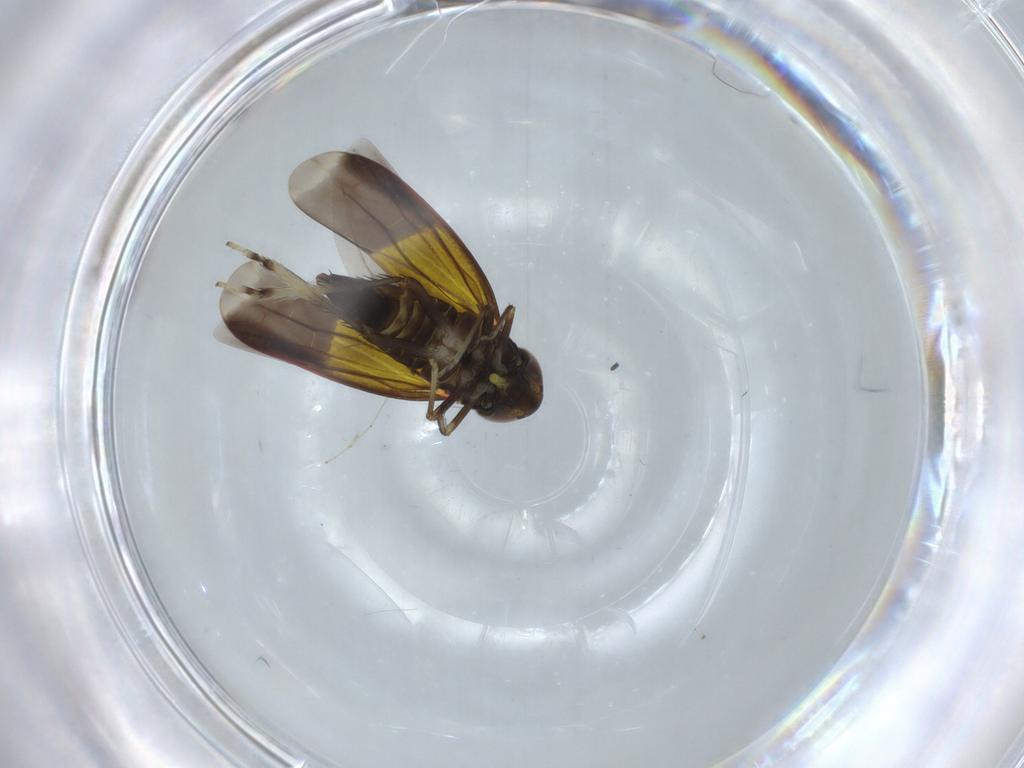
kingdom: Animalia
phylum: Arthropoda
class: Insecta
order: Hemiptera
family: Cicadellidae
